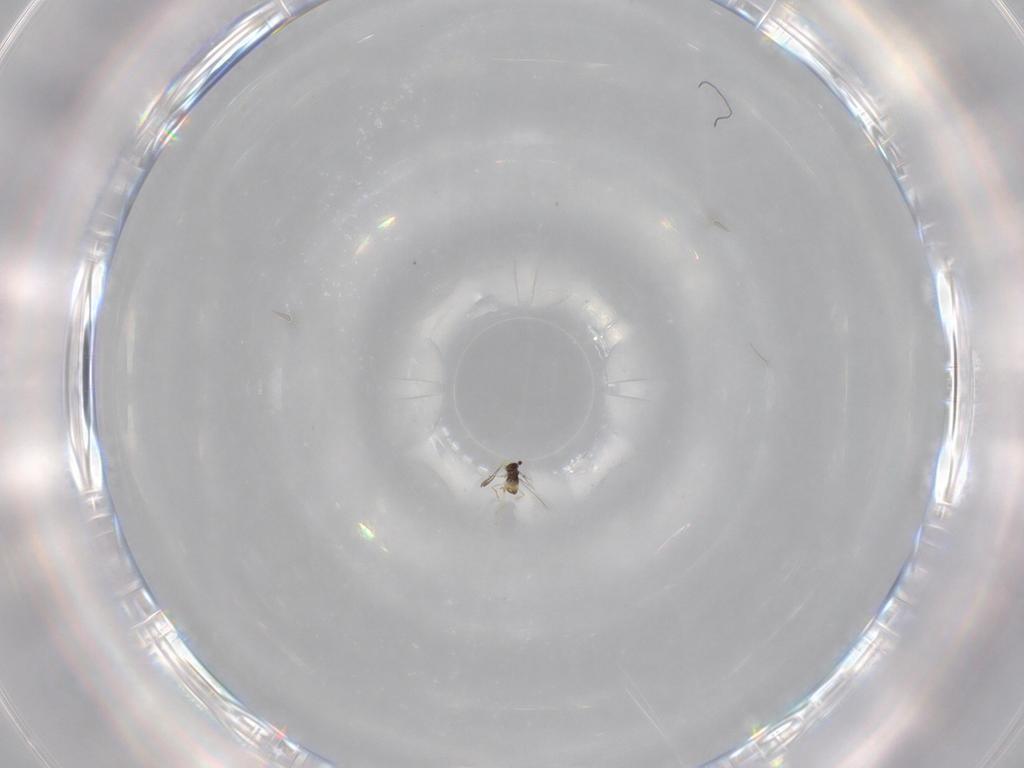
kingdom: Animalia
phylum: Arthropoda
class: Insecta
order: Hymenoptera
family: Mymaridae
